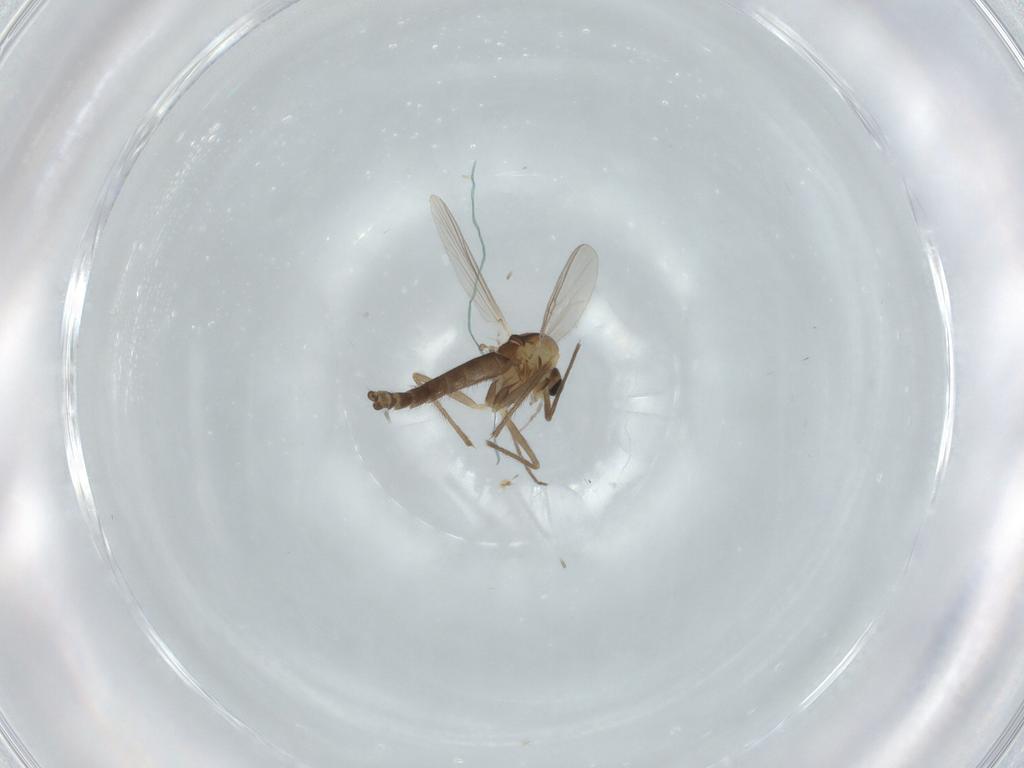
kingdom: Animalia
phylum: Arthropoda
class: Insecta
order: Diptera
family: Chironomidae
